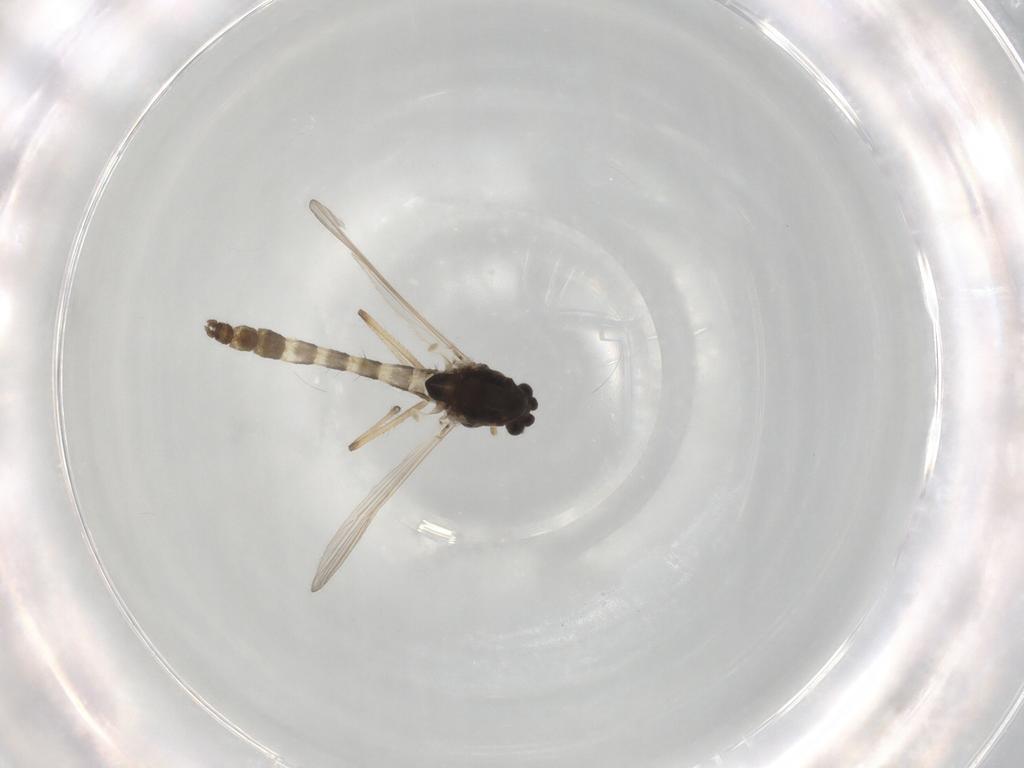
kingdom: Animalia
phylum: Arthropoda
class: Insecta
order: Diptera
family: Chironomidae
